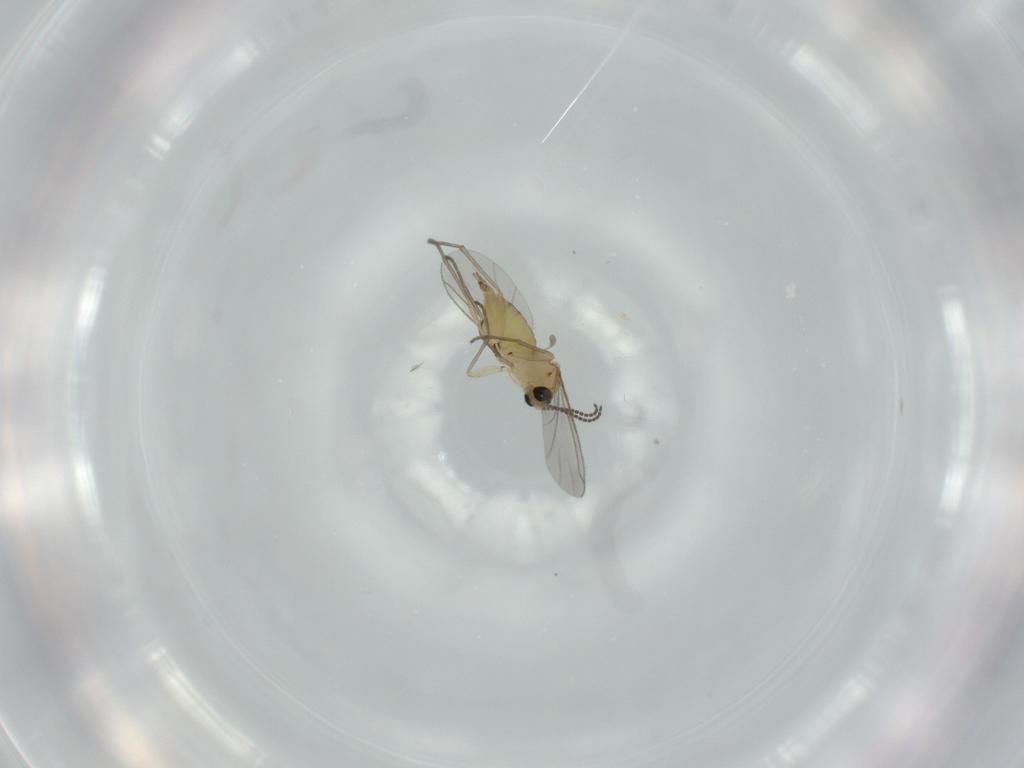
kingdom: Animalia
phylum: Arthropoda
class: Insecta
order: Diptera
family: Sciaridae
